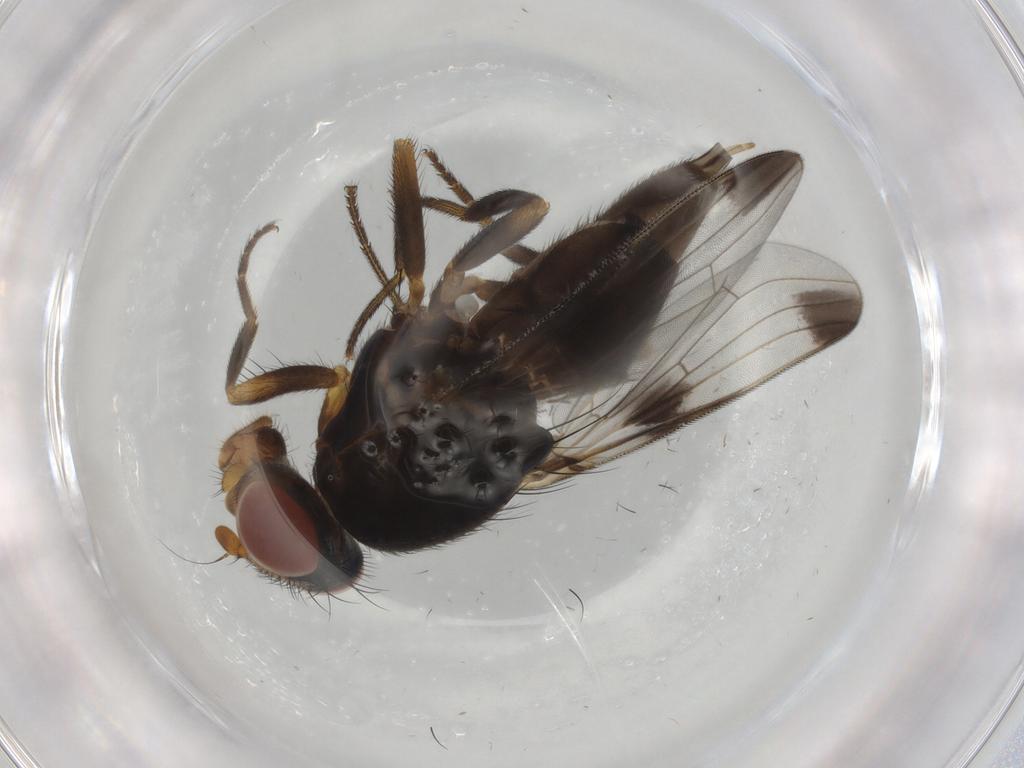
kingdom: Animalia
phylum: Arthropoda
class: Insecta
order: Diptera
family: Ulidiidae
